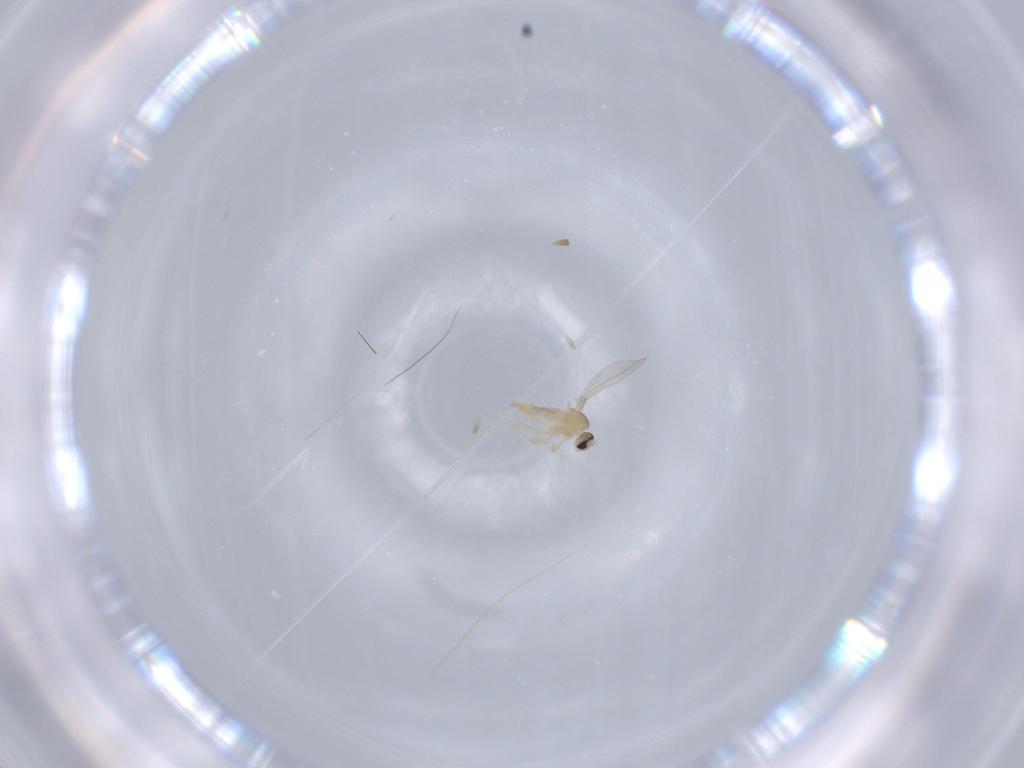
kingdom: Animalia
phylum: Arthropoda
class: Insecta
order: Diptera
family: Cecidomyiidae
